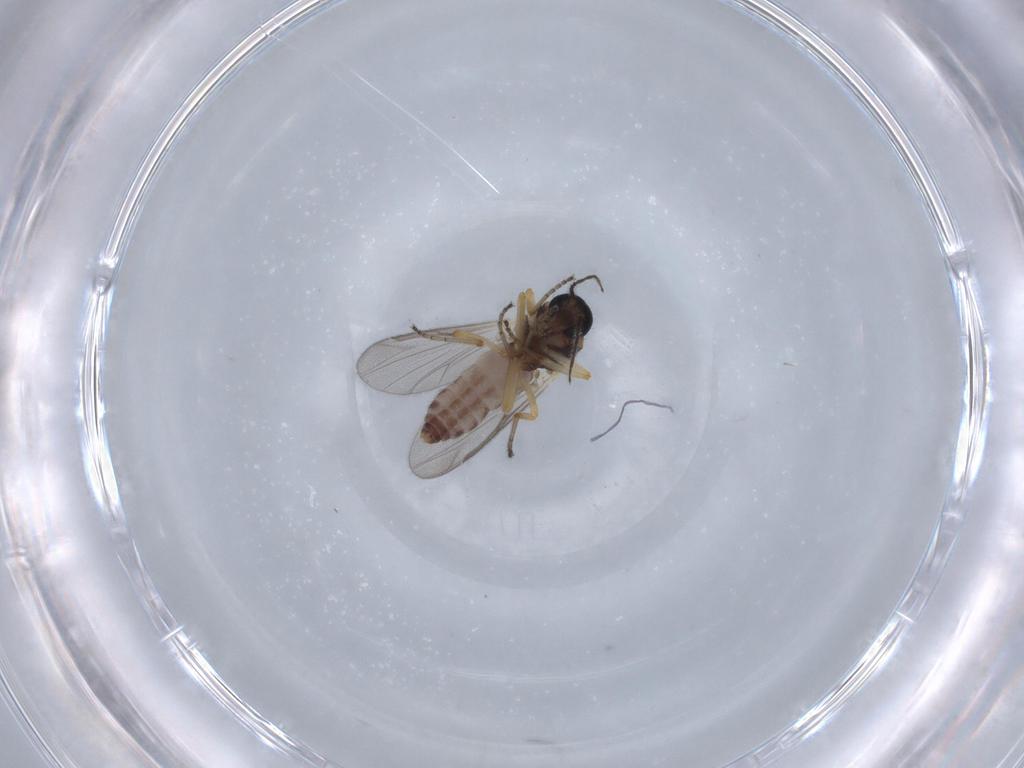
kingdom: Animalia
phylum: Arthropoda
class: Insecta
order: Diptera
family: Ceratopogonidae
